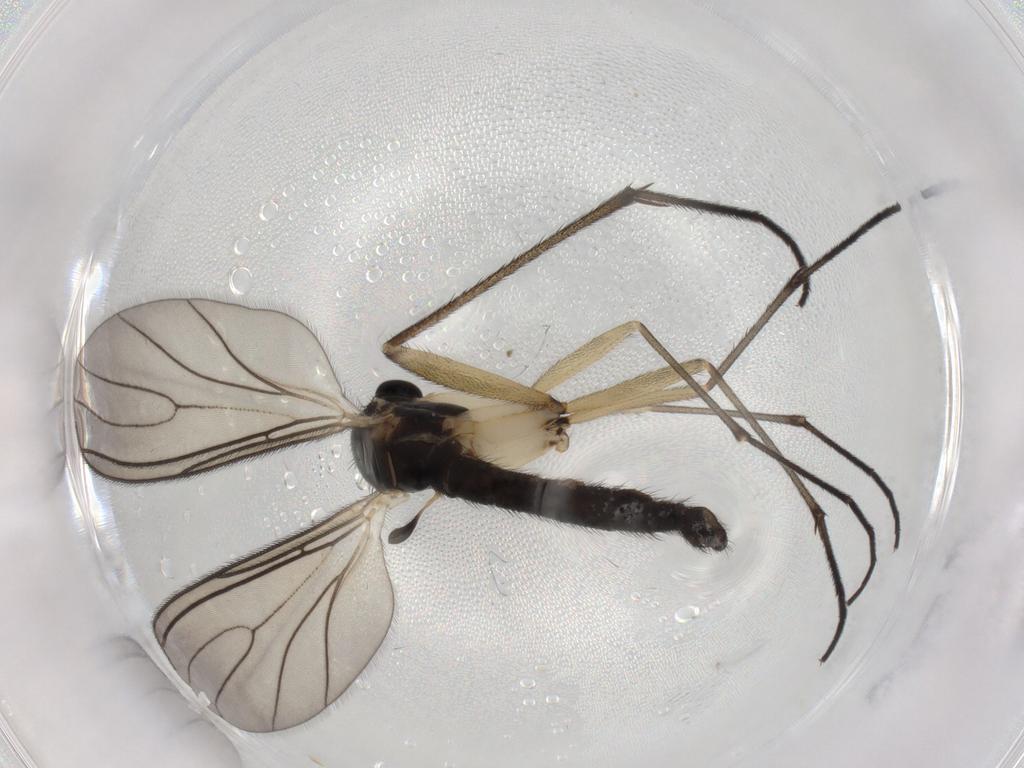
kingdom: Animalia
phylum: Arthropoda
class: Insecta
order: Diptera
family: Sciaridae
